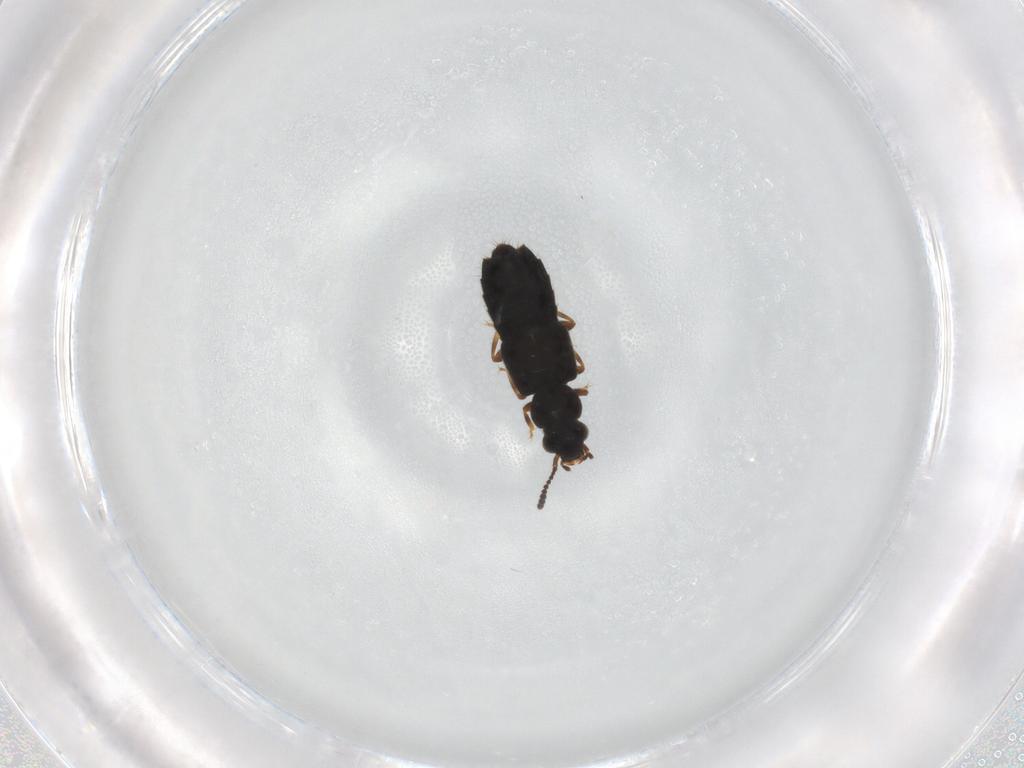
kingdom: Animalia
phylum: Arthropoda
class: Insecta
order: Coleoptera
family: Staphylinidae
